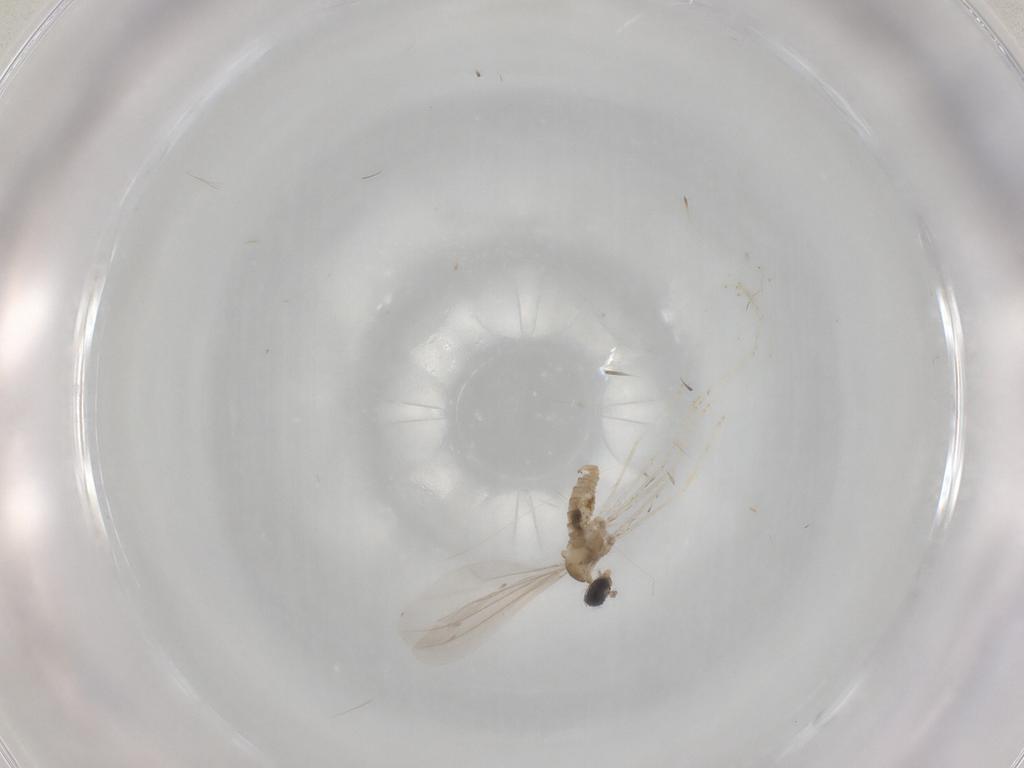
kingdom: Animalia
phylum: Arthropoda
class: Insecta
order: Diptera
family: Cecidomyiidae
